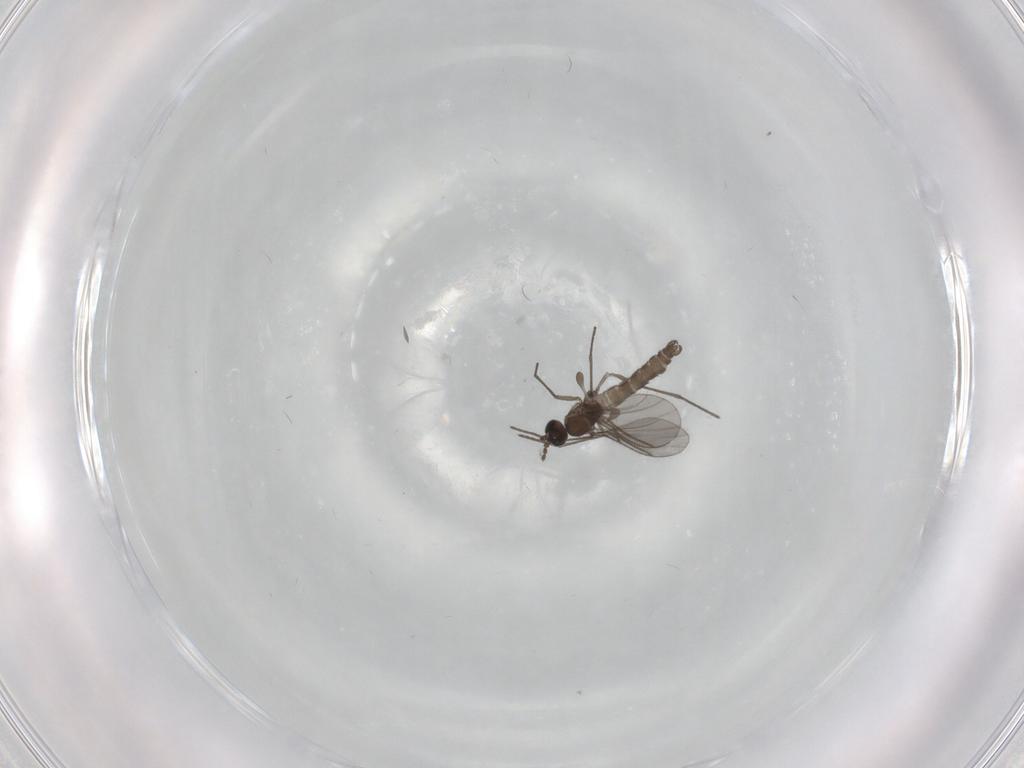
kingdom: Animalia
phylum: Arthropoda
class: Insecta
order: Diptera
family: Sciaridae
